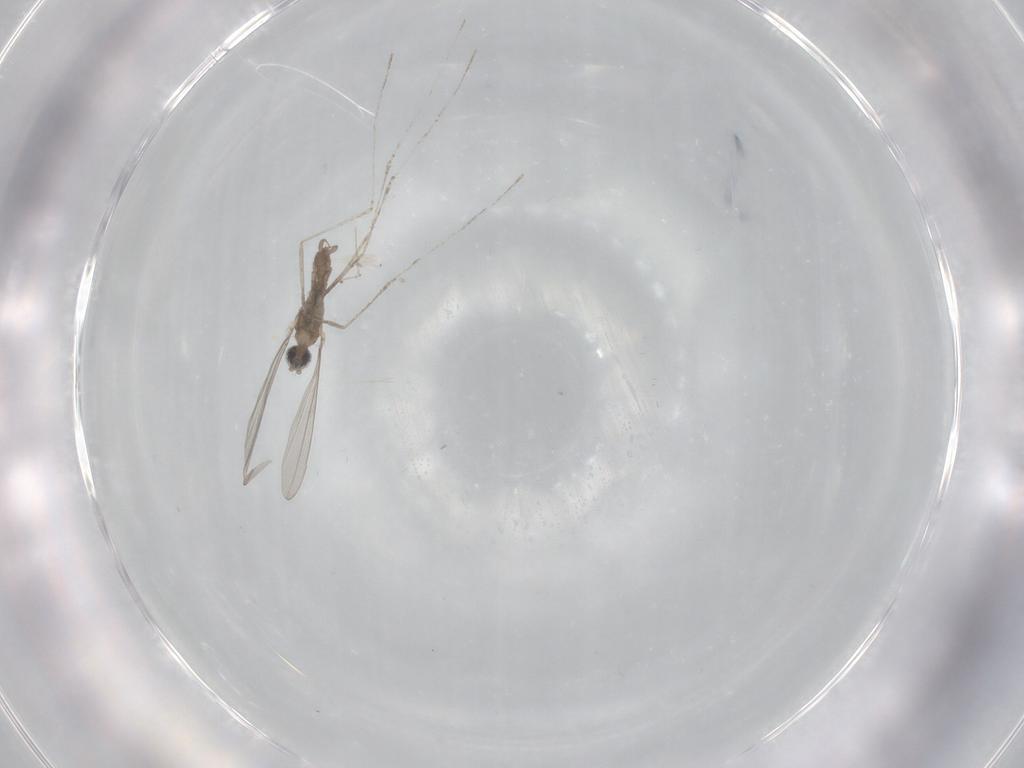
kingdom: Animalia
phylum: Arthropoda
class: Insecta
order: Diptera
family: Cecidomyiidae
